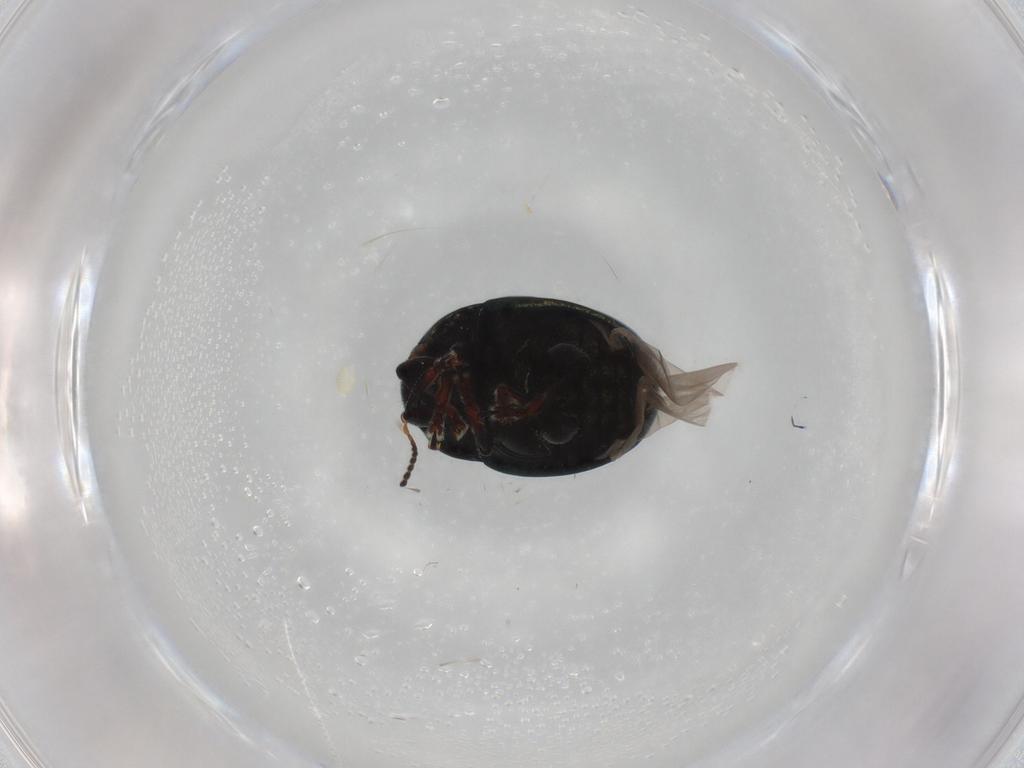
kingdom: Animalia
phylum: Arthropoda
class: Insecta
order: Coleoptera
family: Chrysomelidae
